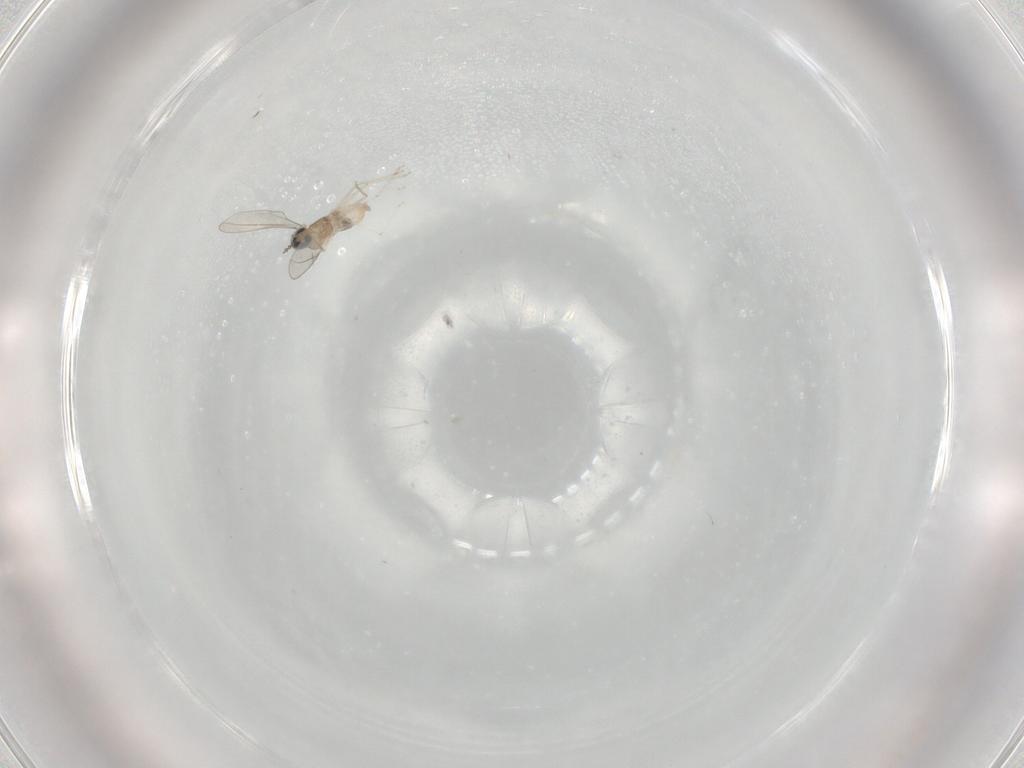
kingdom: Animalia
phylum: Arthropoda
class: Insecta
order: Diptera
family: Cecidomyiidae
